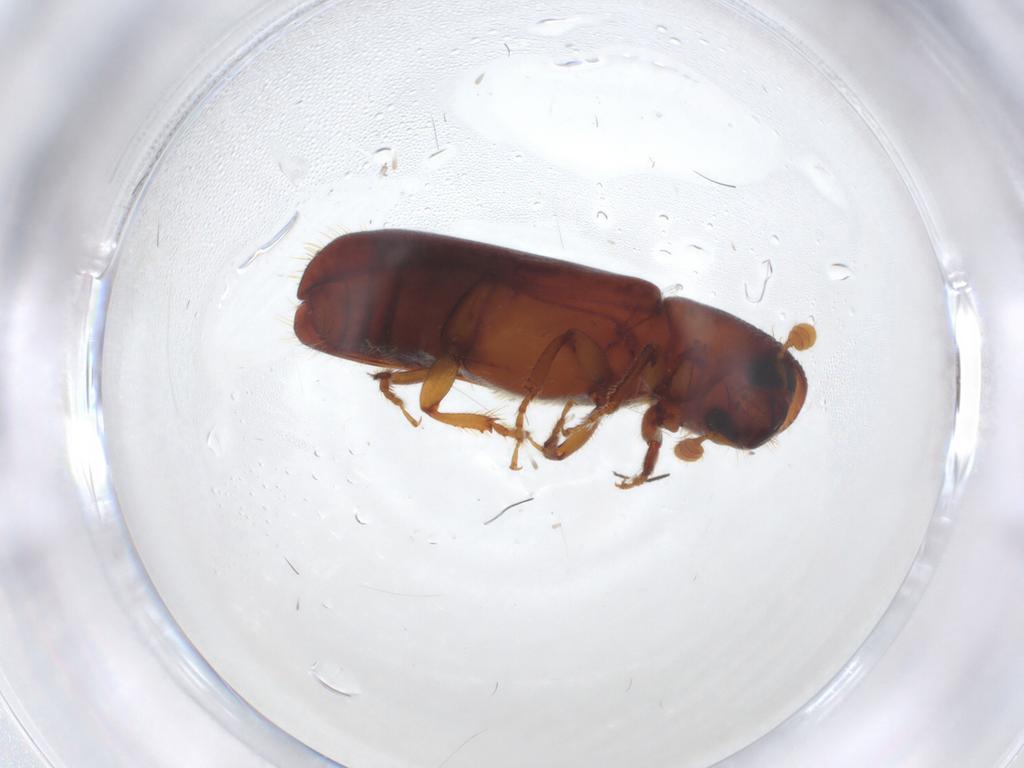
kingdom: Animalia
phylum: Arthropoda
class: Insecta
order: Coleoptera
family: Curculionidae
